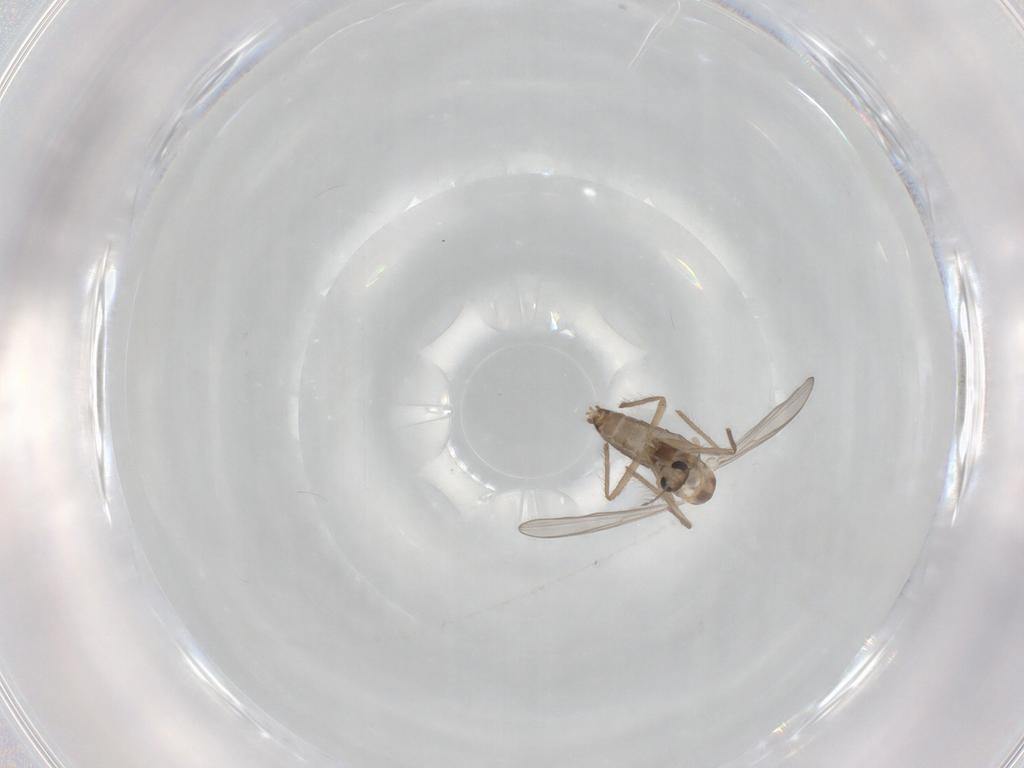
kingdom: Animalia
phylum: Arthropoda
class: Insecta
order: Diptera
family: Chironomidae
